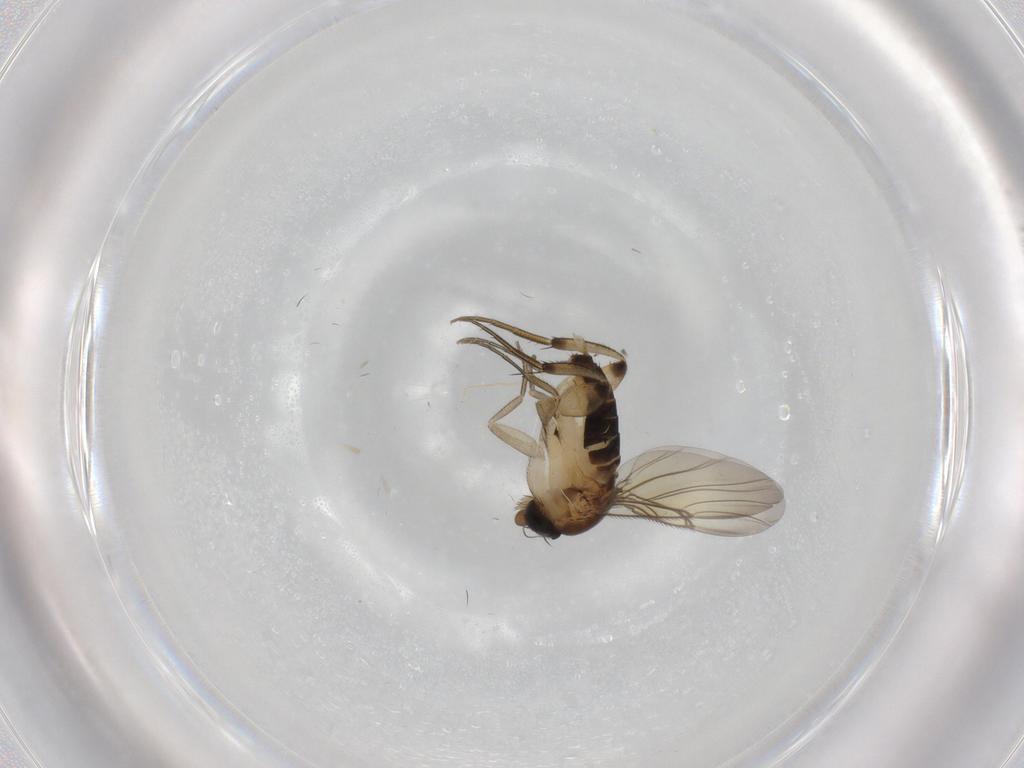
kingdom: Animalia
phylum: Arthropoda
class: Insecta
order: Diptera
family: Phoridae
